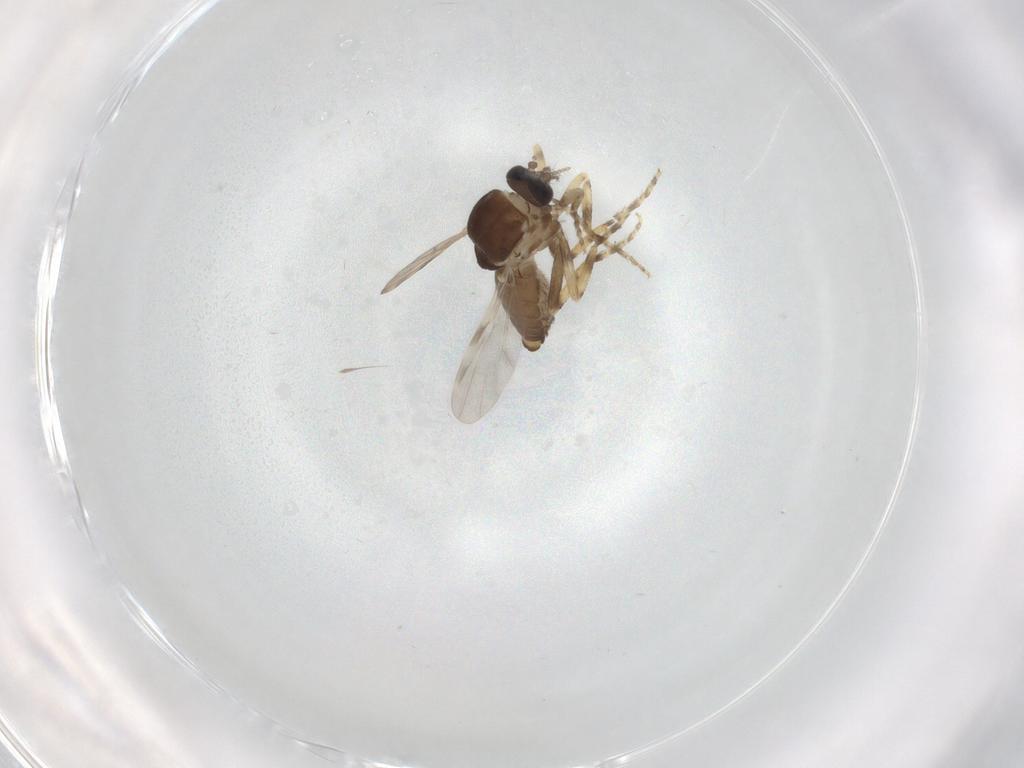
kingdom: Animalia
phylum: Arthropoda
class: Insecta
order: Diptera
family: Ceratopogonidae
